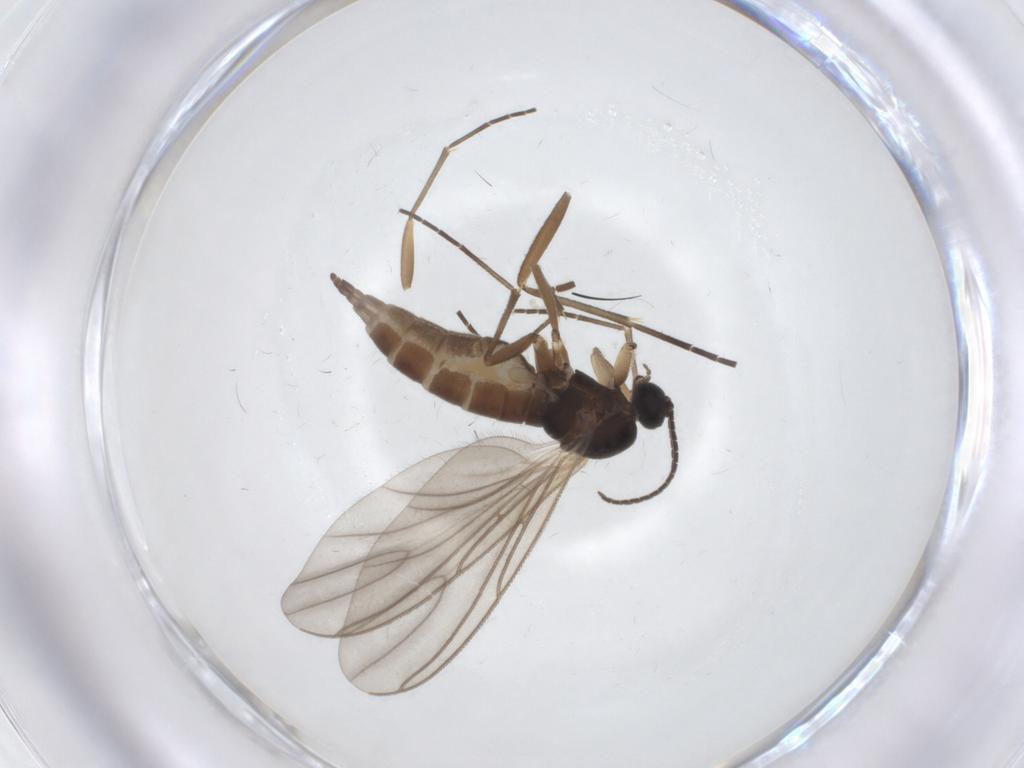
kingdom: Animalia
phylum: Arthropoda
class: Insecta
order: Diptera
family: Sciaridae
